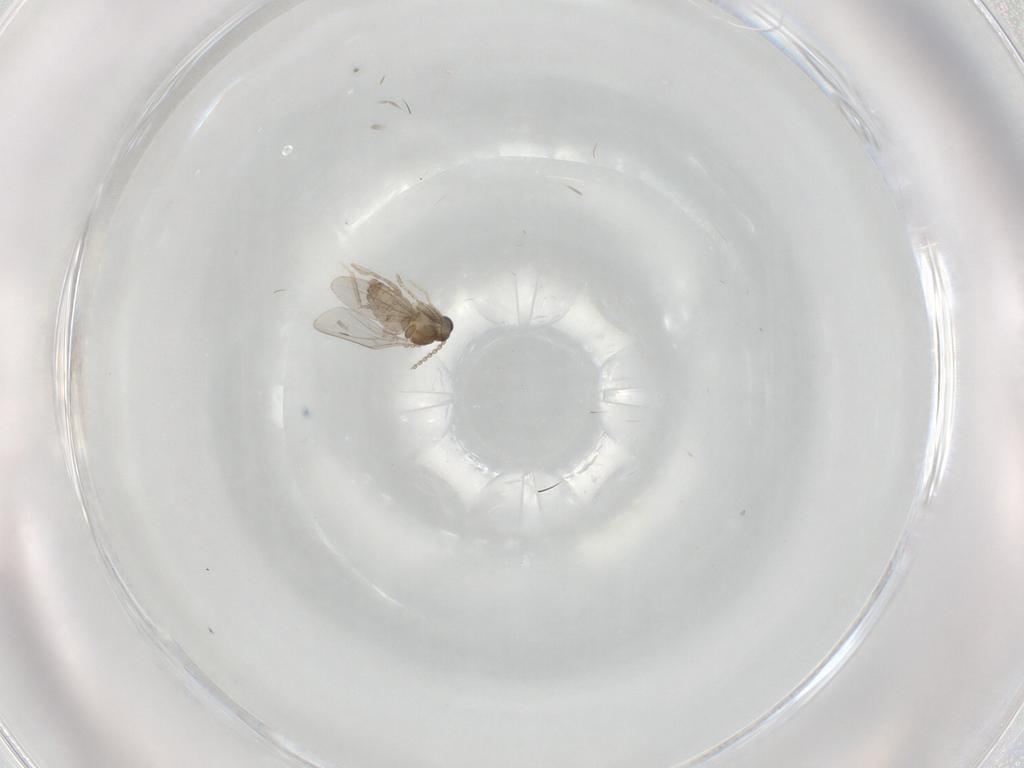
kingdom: Animalia
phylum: Arthropoda
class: Insecta
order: Diptera
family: Cecidomyiidae
